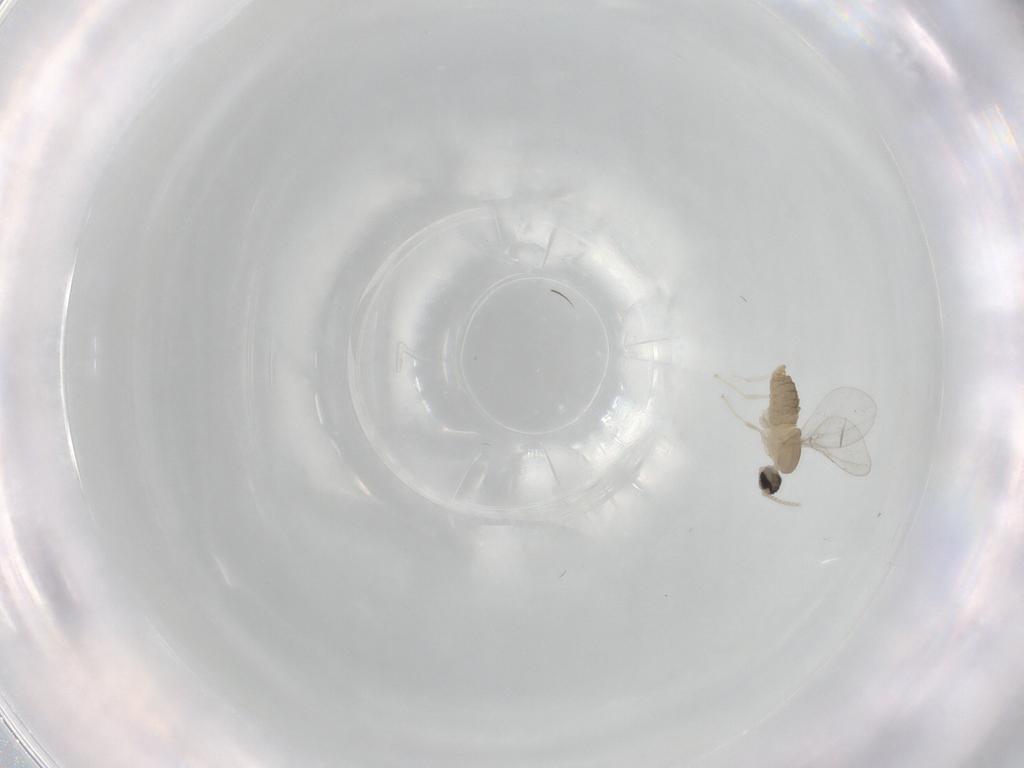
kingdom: Animalia
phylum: Arthropoda
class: Insecta
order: Diptera
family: Cecidomyiidae
